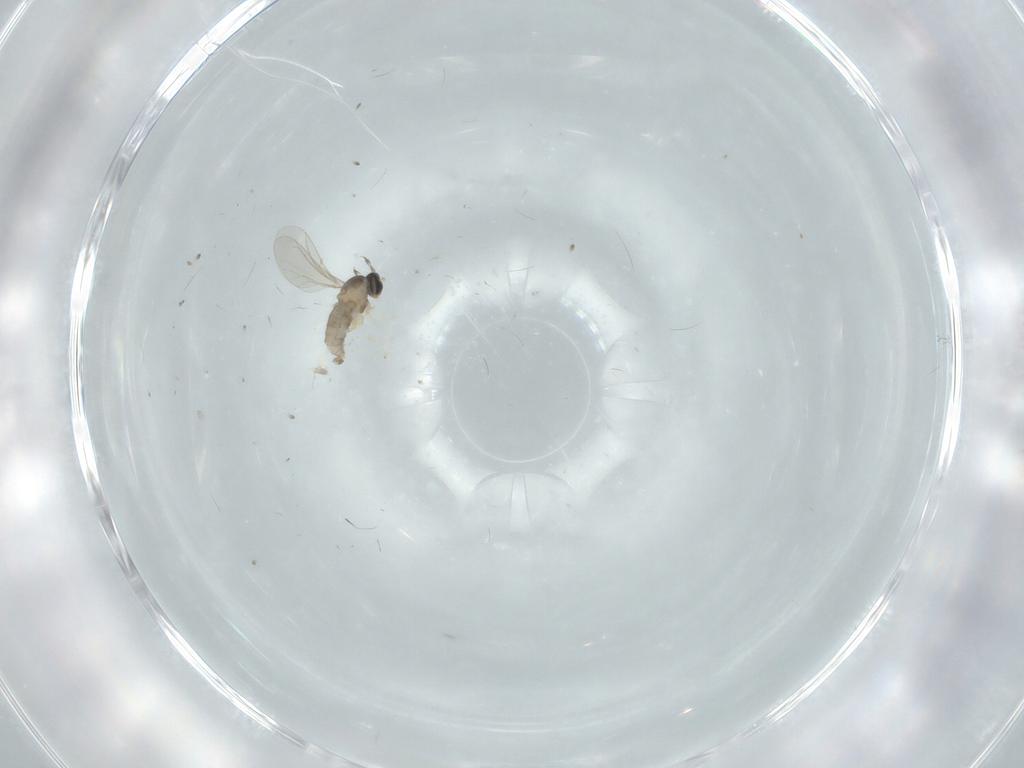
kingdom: Animalia
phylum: Arthropoda
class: Insecta
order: Diptera
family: Cecidomyiidae
